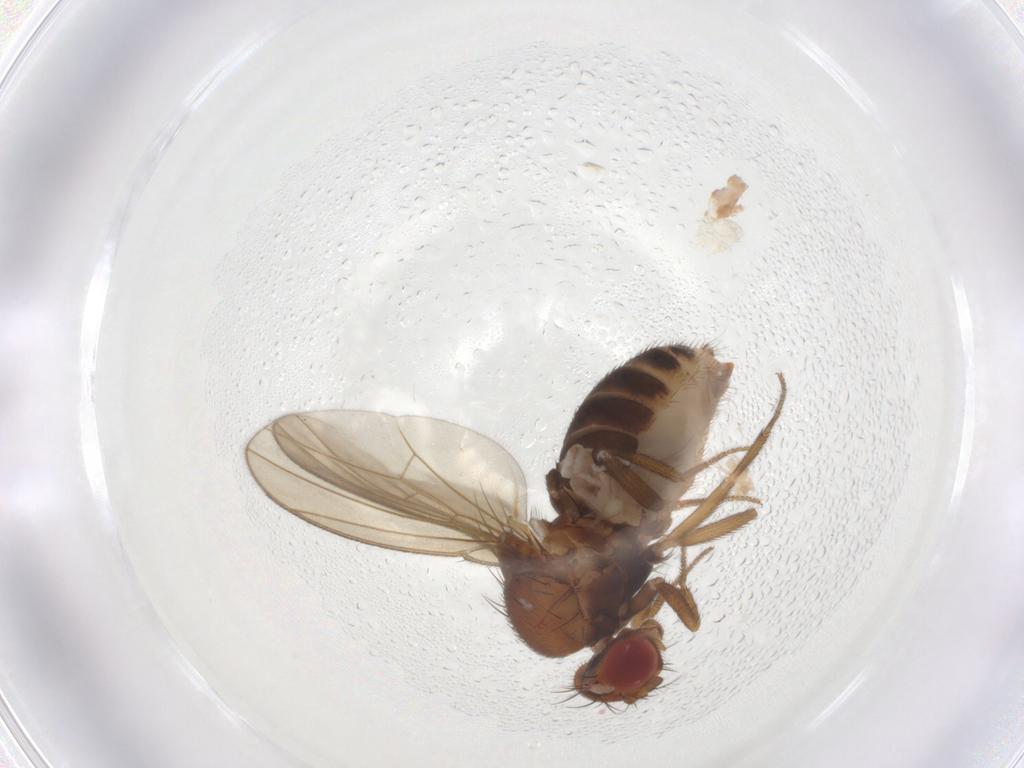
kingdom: Animalia
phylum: Arthropoda
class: Insecta
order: Diptera
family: Drosophilidae
